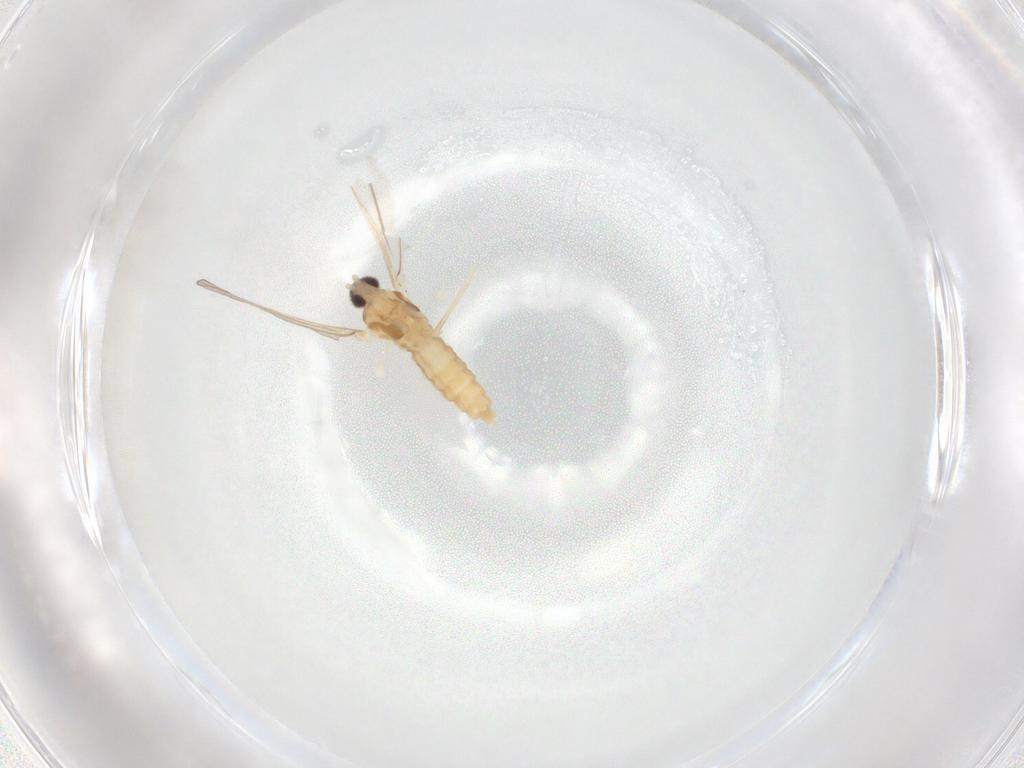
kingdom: Animalia
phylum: Arthropoda
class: Insecta
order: Diptera
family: Cecidomyiidae
